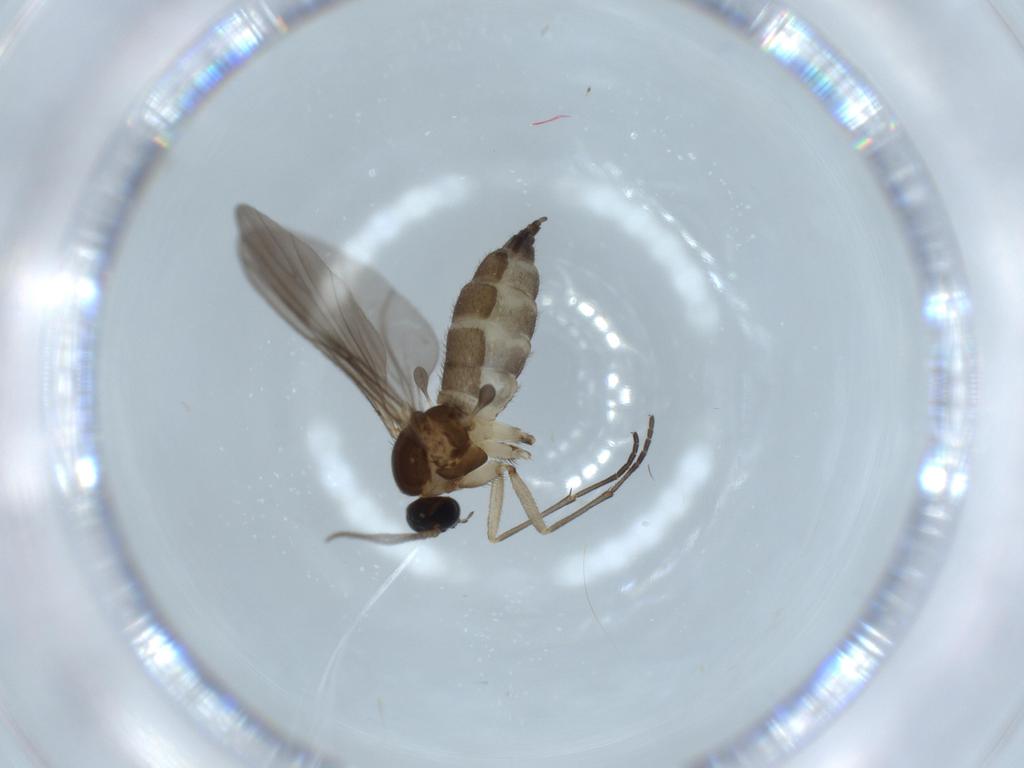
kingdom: Animalia
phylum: Arthropoda
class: Insecta
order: Diptera
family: Sciaridae
